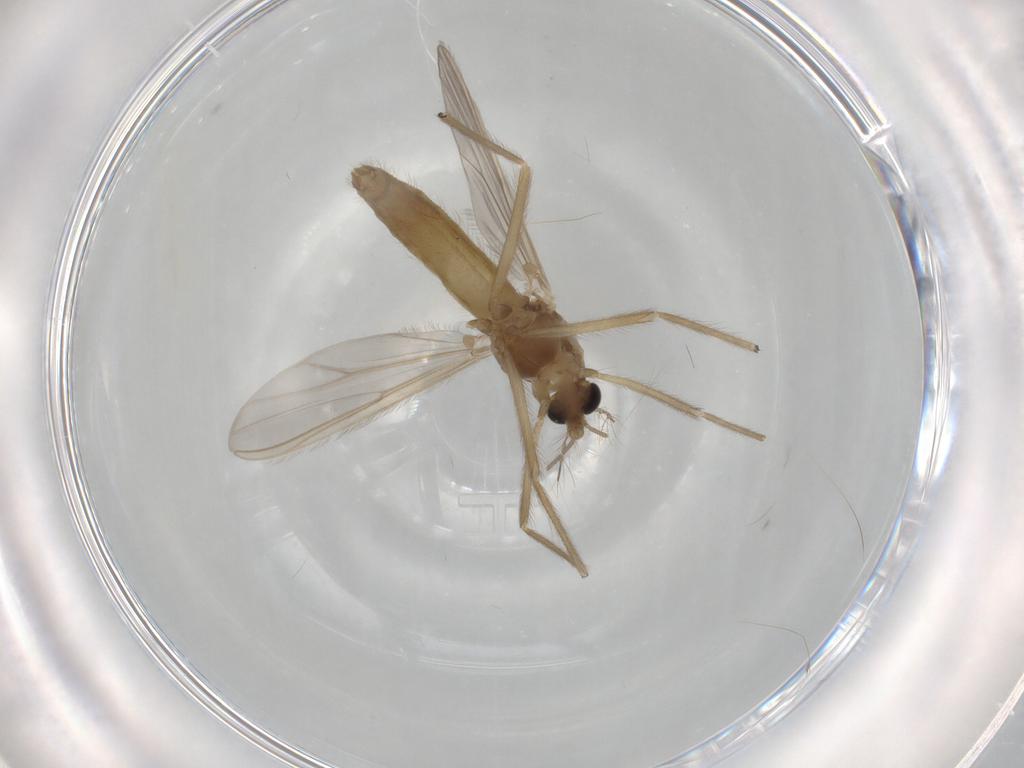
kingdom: Animalia
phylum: Arthropoda
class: Insecta
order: Diptera
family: Chironomidae
